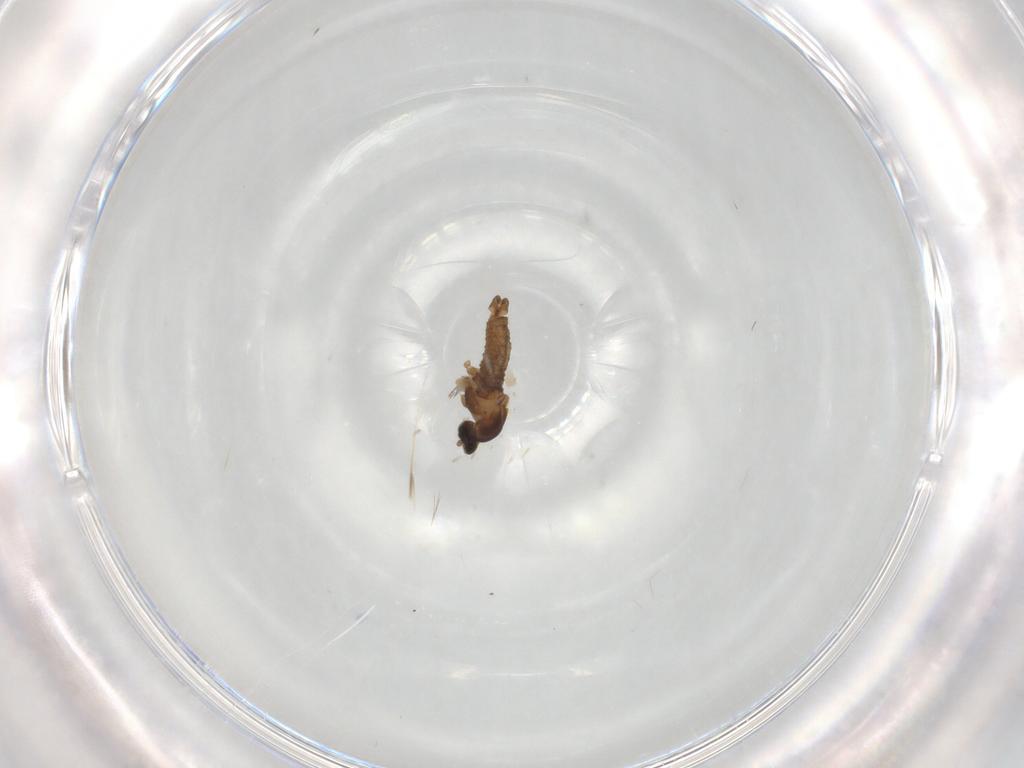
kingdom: Animalia
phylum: Arthropoda
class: Insecta
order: Diptera
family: Cecidomyiidae
